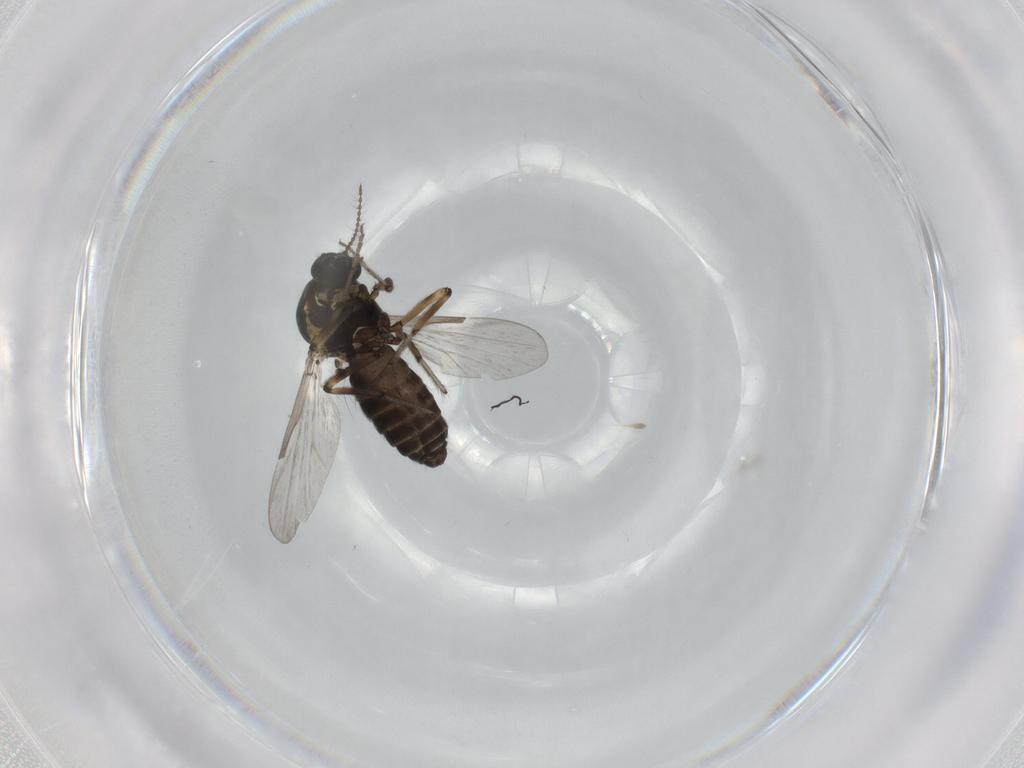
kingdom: Animalia
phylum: Arthropoda
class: Insecta
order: Diptera
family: Ceratopogonidae
